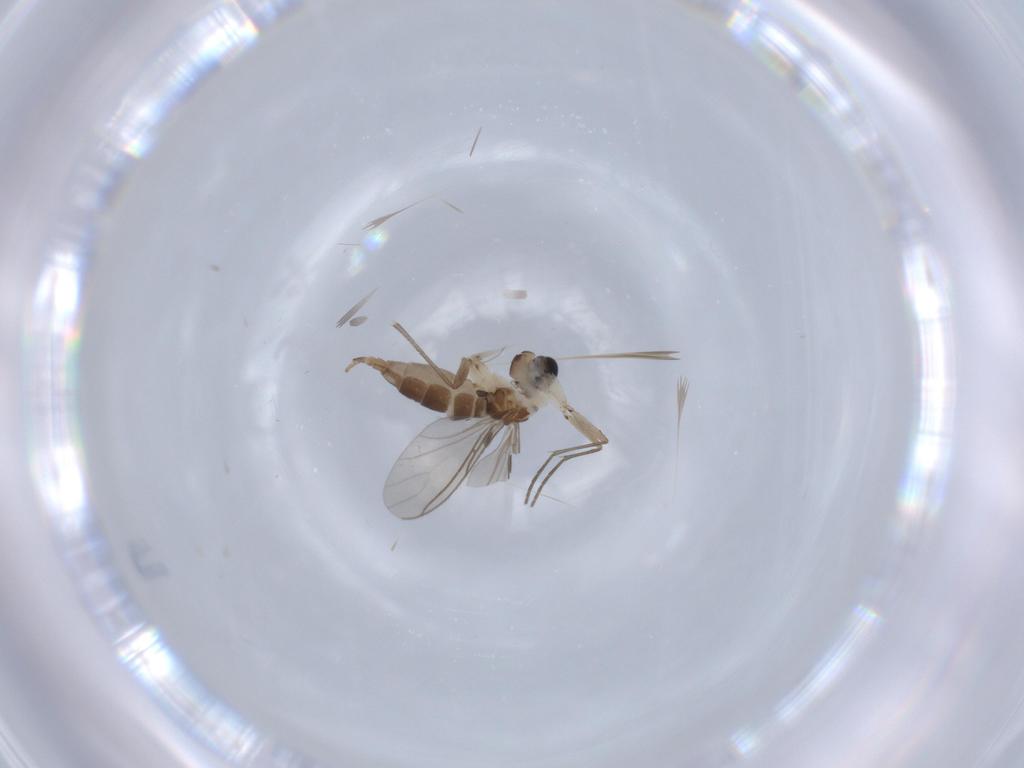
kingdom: Animalia
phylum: Arthropoda
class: Insecta
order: Diptera
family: Sciaridae
